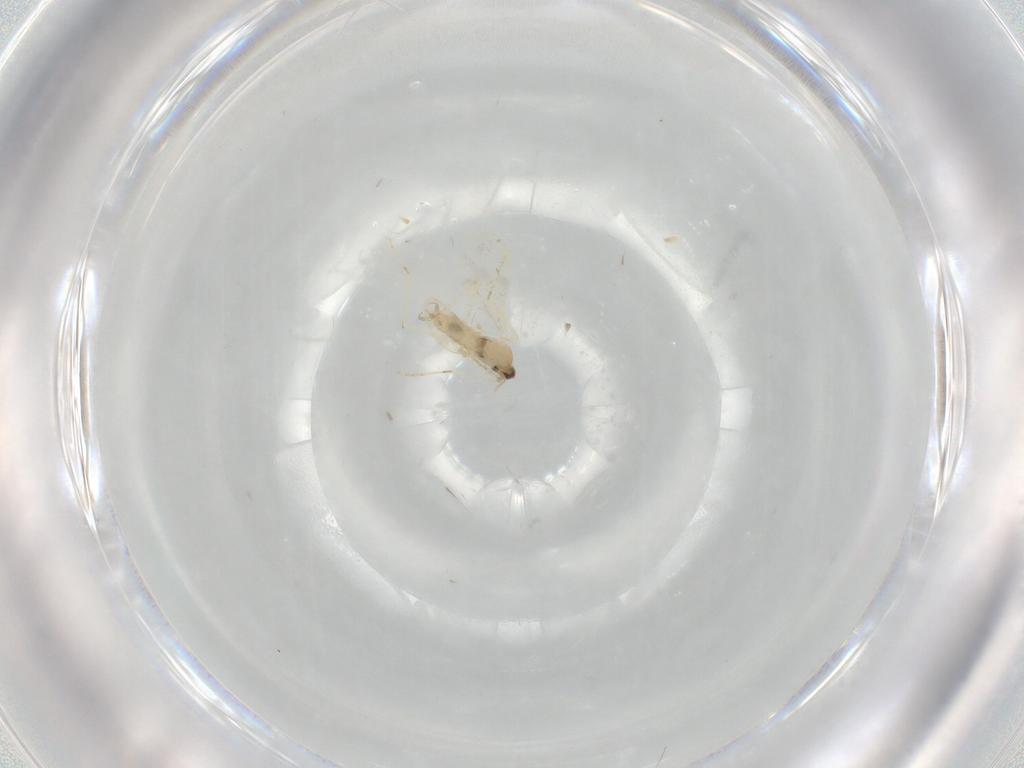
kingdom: Animalia
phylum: Arthropoda
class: Insecta
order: Diptera
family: Cecidomyiidae
